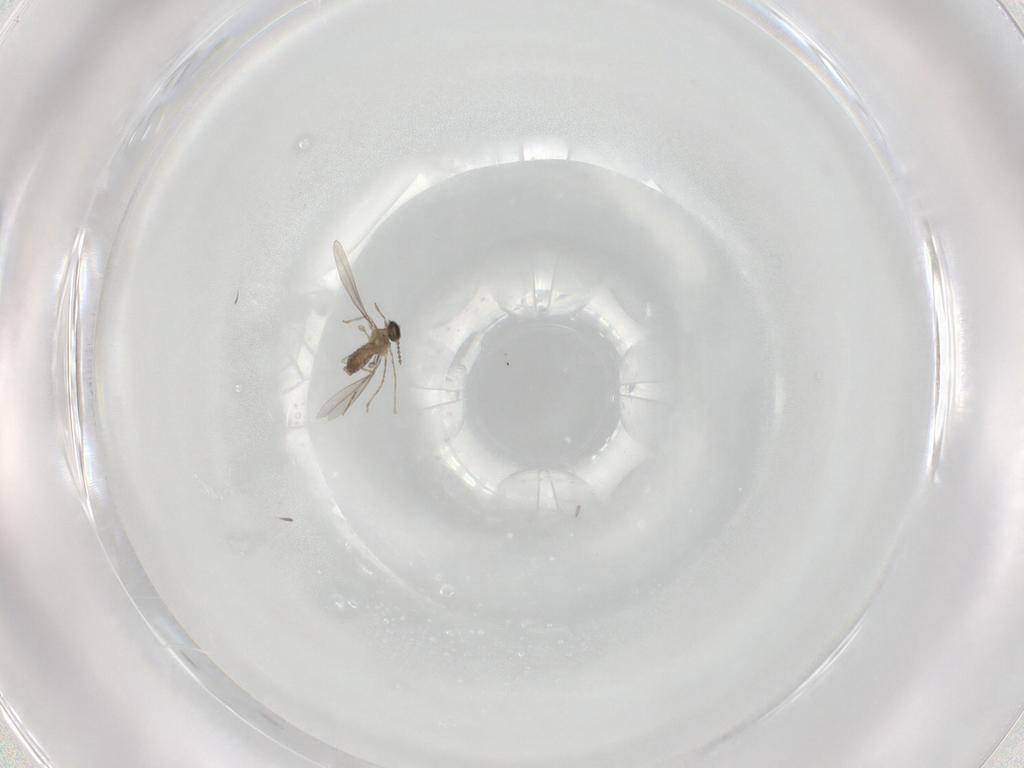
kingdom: Animalia
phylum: Arthropoda
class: Insecta
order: Diptera
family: Cecidomyiidae
